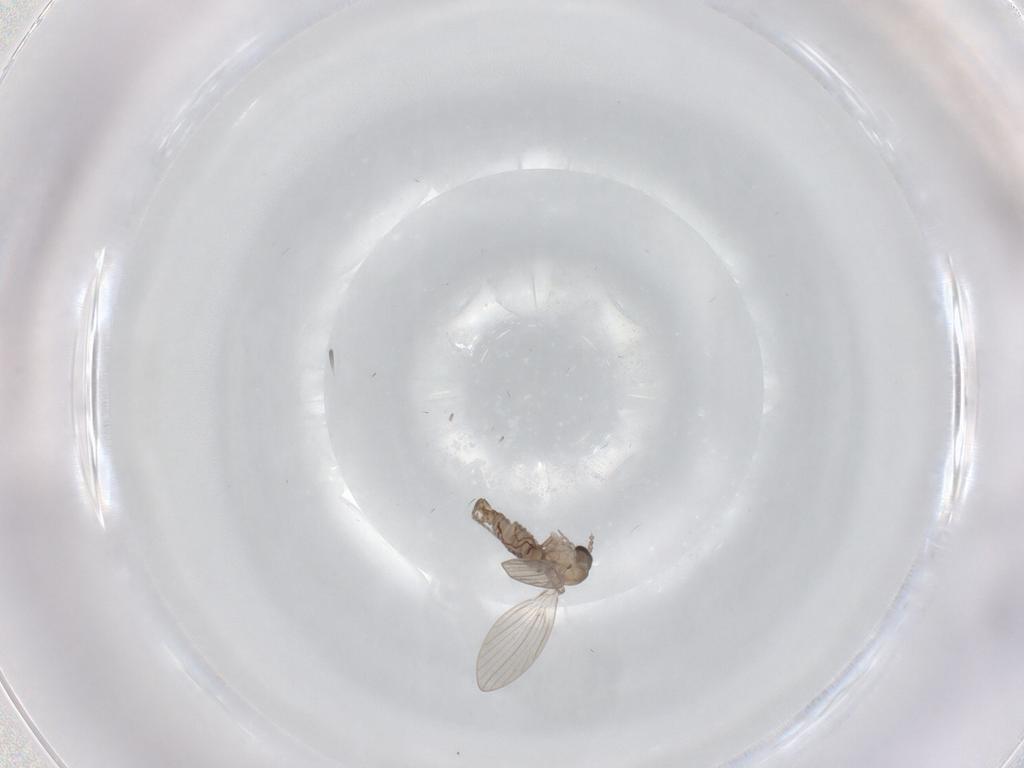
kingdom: Animalia
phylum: Arthropoda
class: Insecta
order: Diptera
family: Psychodidae
